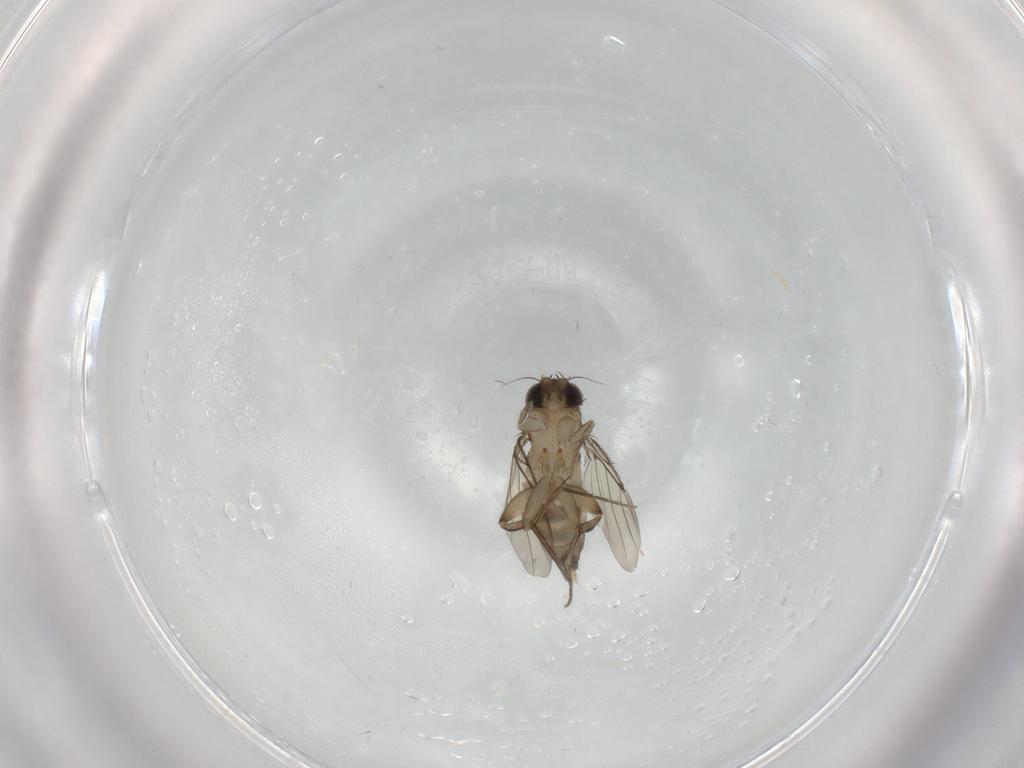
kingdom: Animalia
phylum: Arthropoda
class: Insecta
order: Diptera
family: Phoridae
